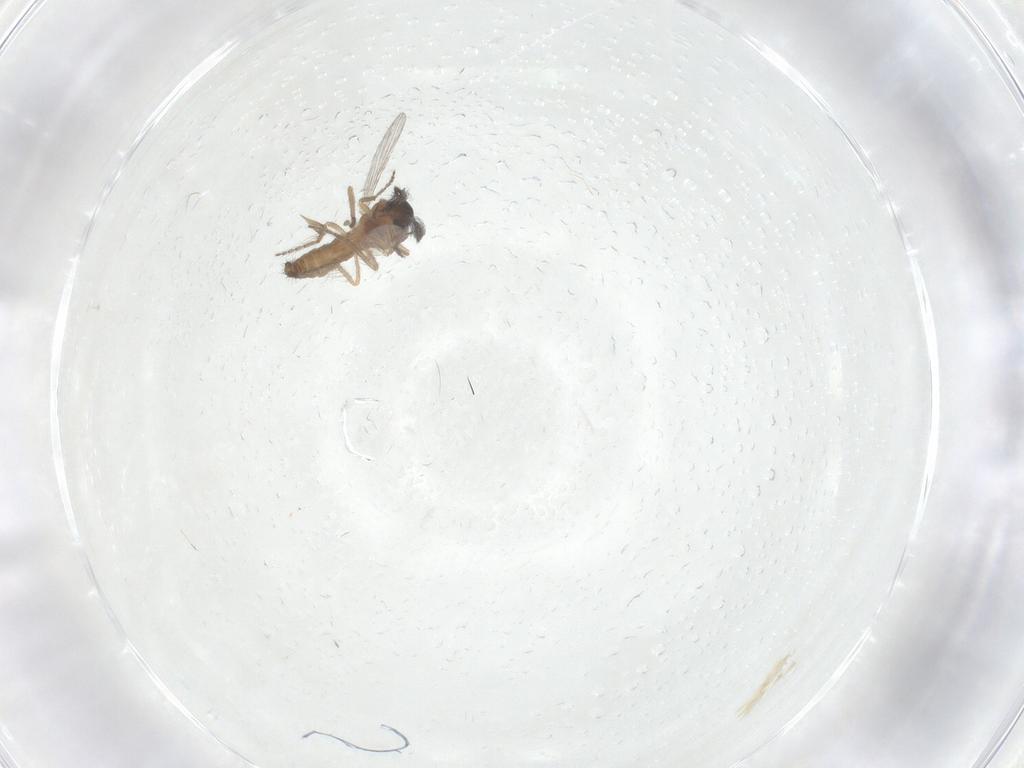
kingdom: Animalia
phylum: Arthropoda
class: Insecta
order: Diptera
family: Ceratopogonidae
